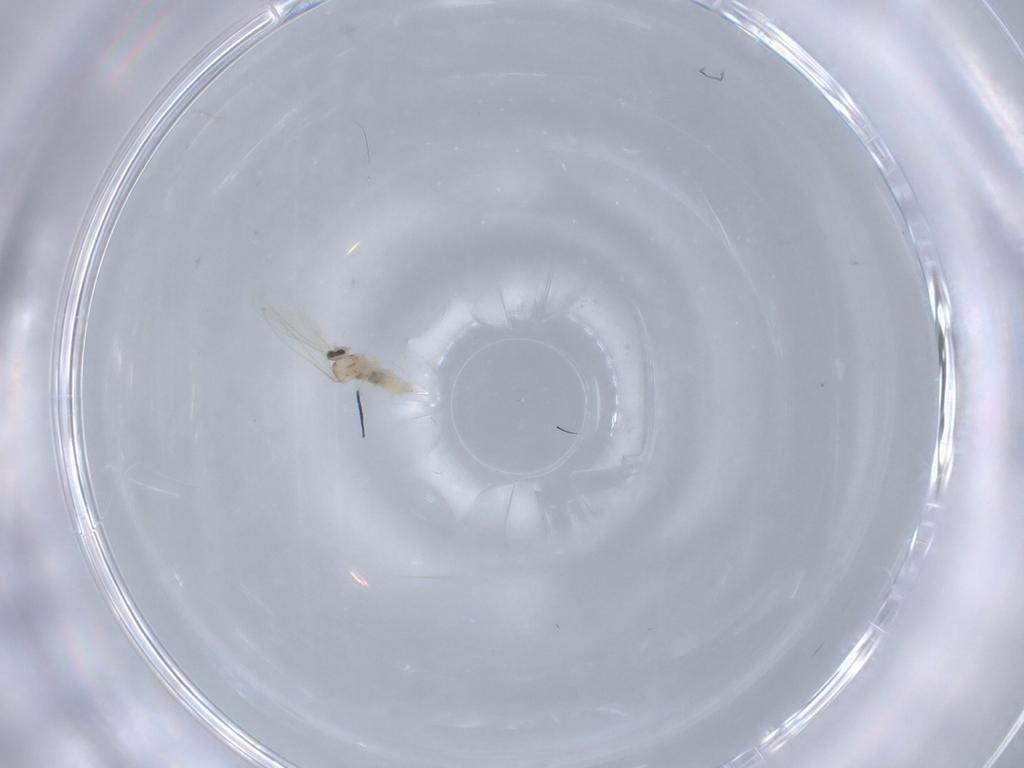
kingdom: Animalia
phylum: Arthropoda
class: Insecta
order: Diptera
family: Cecidomyiidae
